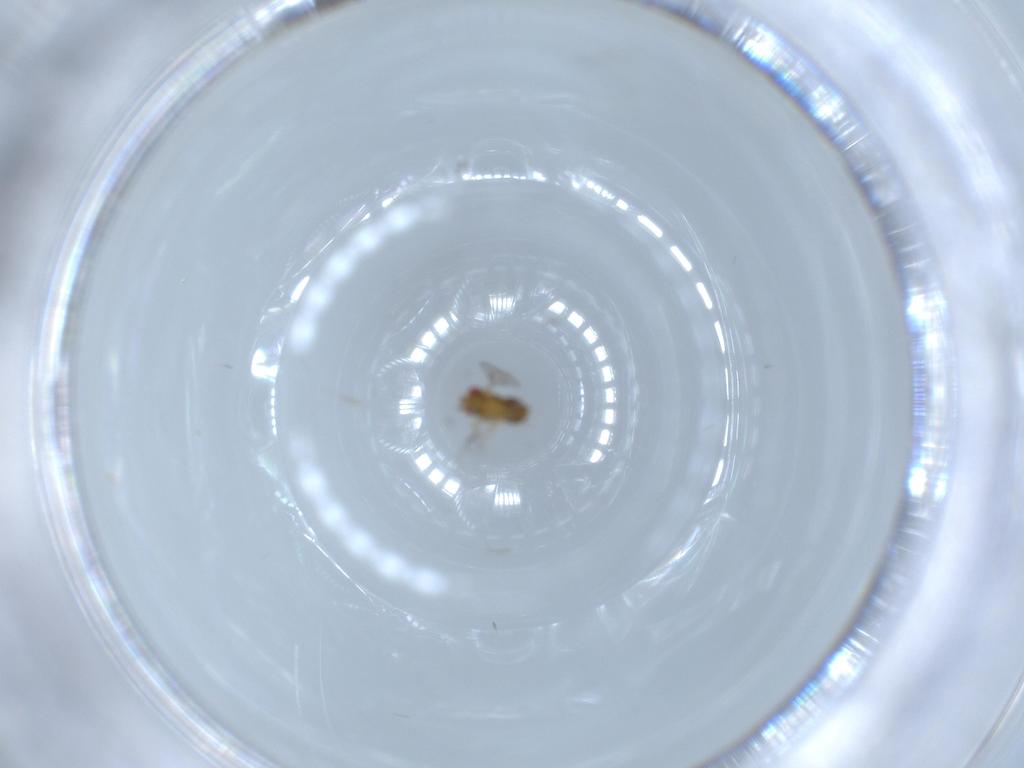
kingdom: Animalia
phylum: Arthropoda
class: Insecta
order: Hymenoptera
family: Trichogrammatidae
